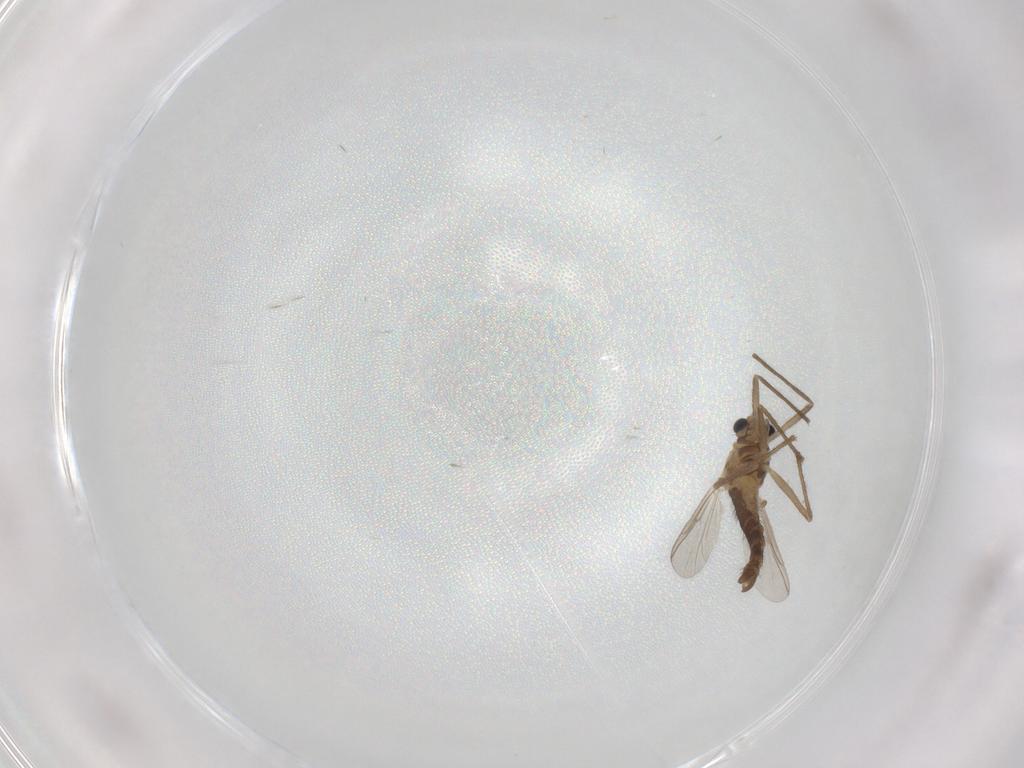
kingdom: Animalia
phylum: Arthropoda
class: Insecta
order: Diptera
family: Chironomidae
